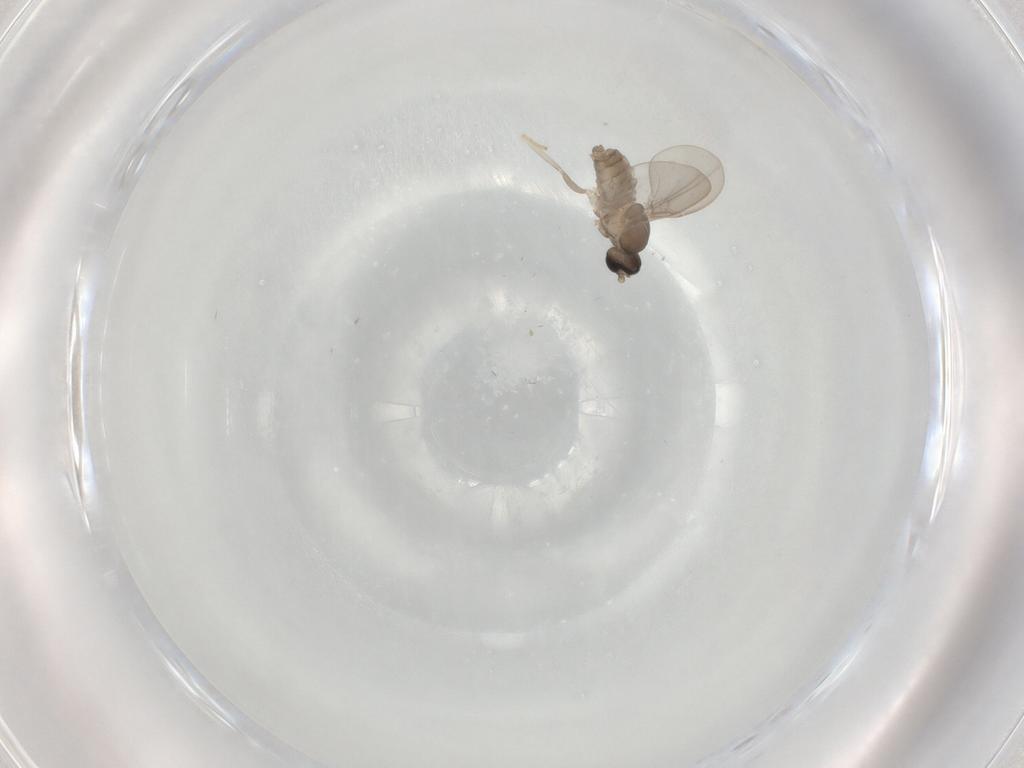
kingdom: Animalia
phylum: Arthropoda
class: Insecta
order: Diptera
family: Cecidomyiidae
